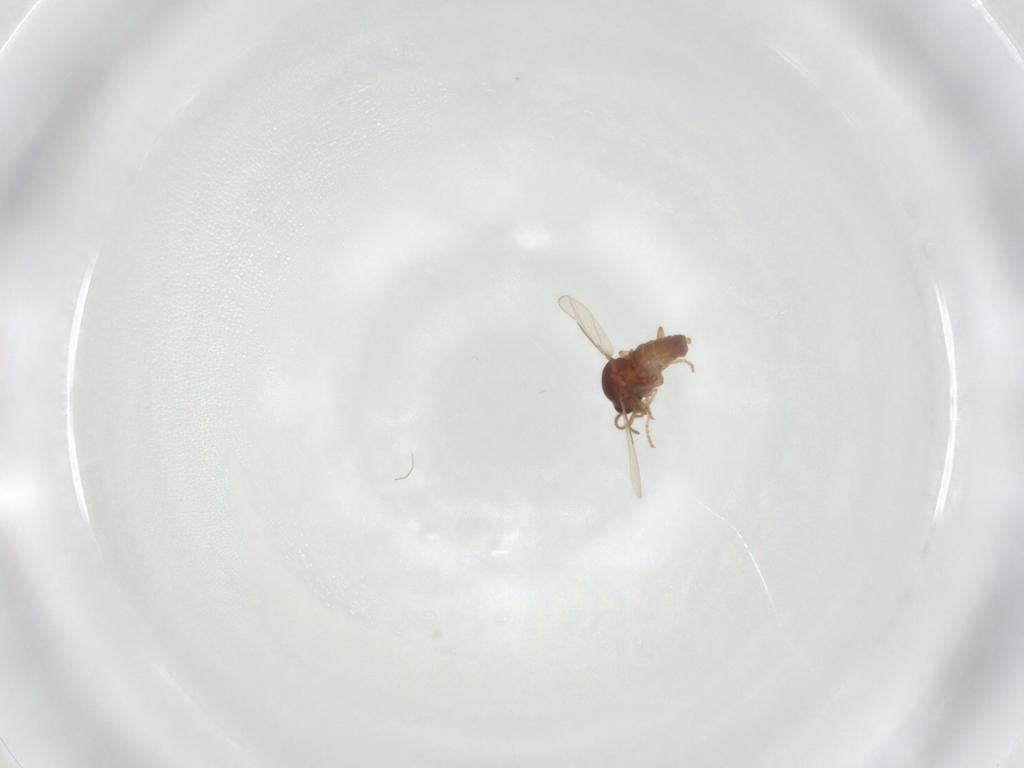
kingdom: Animalia
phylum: Arthropoda
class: Insecta
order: Diptera
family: Ceratopogonidae
